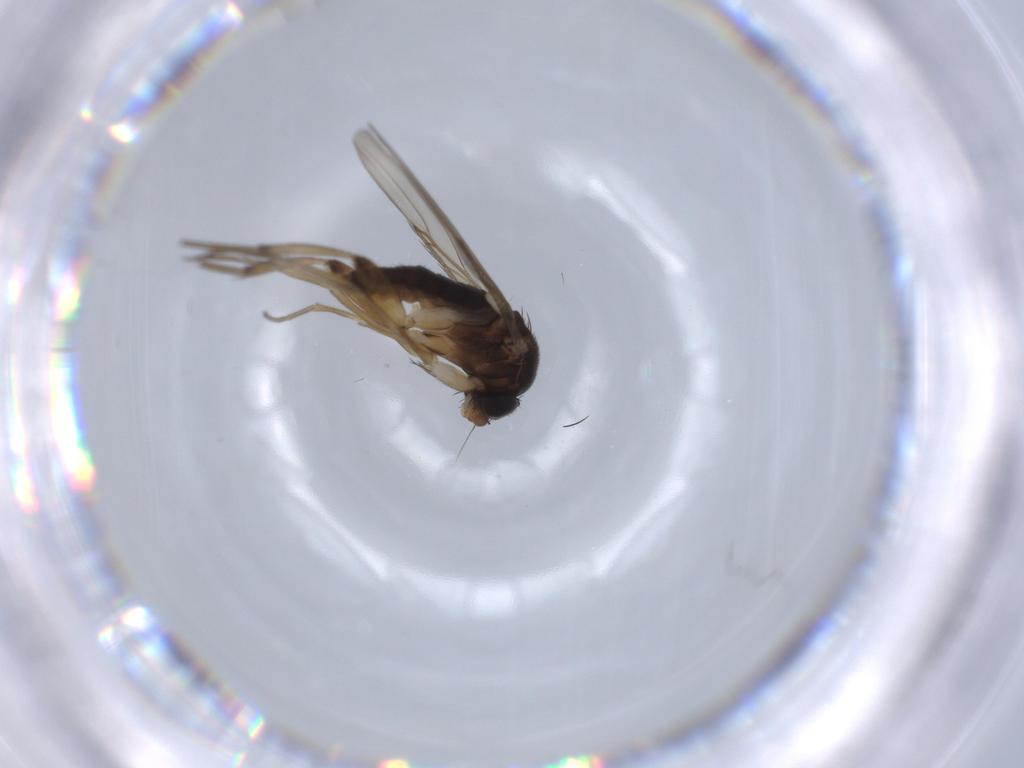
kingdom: Animalia
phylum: Arthropoda
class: Insecta
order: Diptera
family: Phoridae
